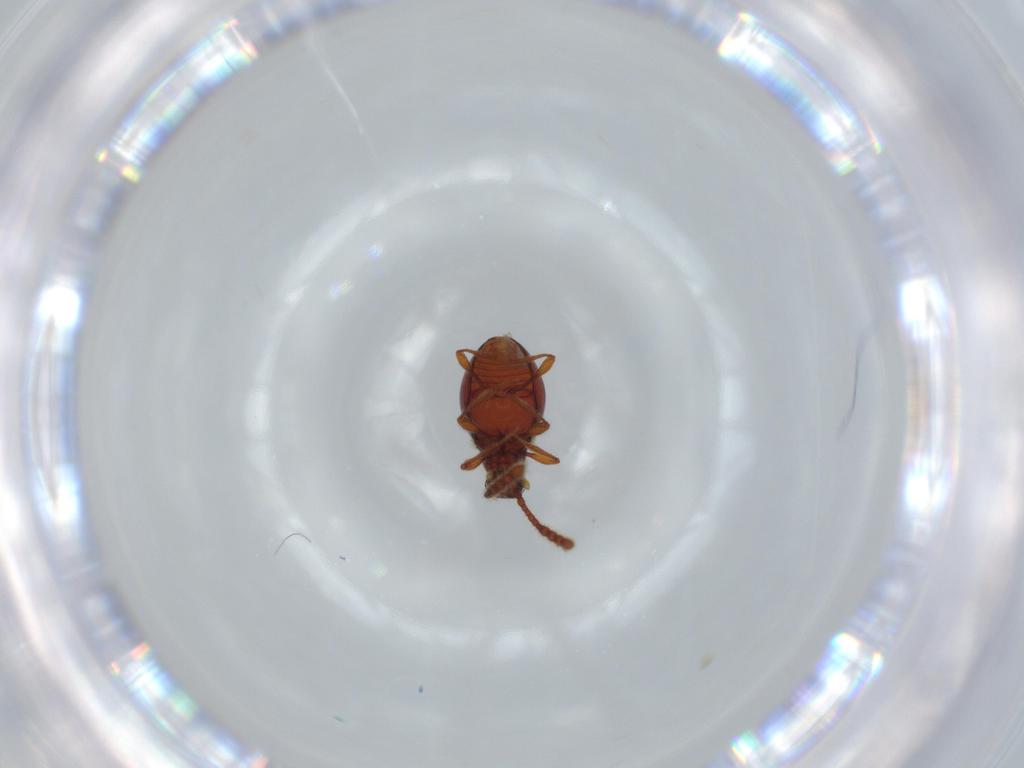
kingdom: Animalia
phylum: Arthropoda
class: Insecta
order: Coleoptera
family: Staphylinidae
